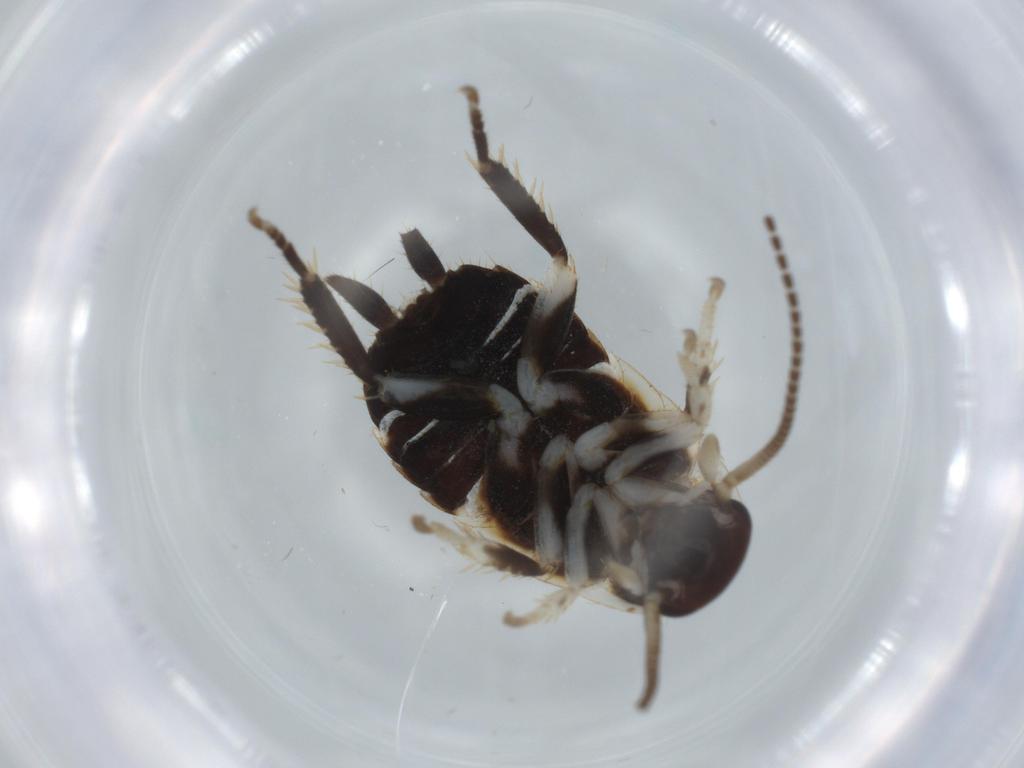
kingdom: Animalia
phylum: Arthropoda
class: Insecta
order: Blattodea
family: Ectobiidae
